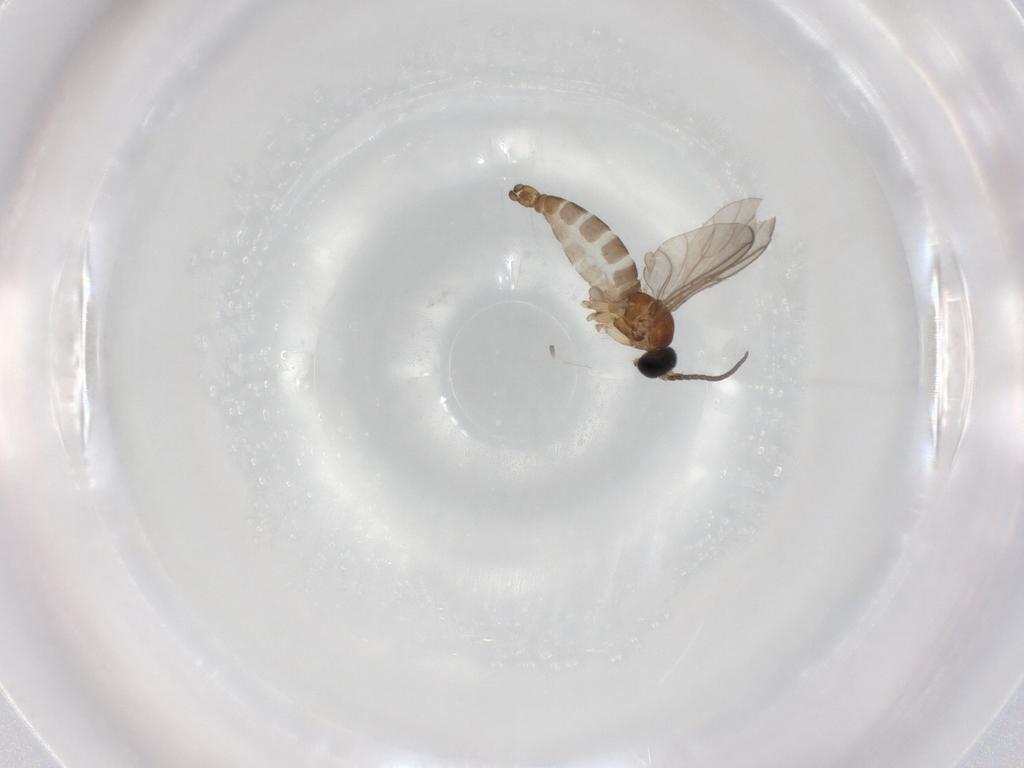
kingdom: Animalia
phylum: Arthropoda
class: Insecta
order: Diptera
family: Sciaridae
